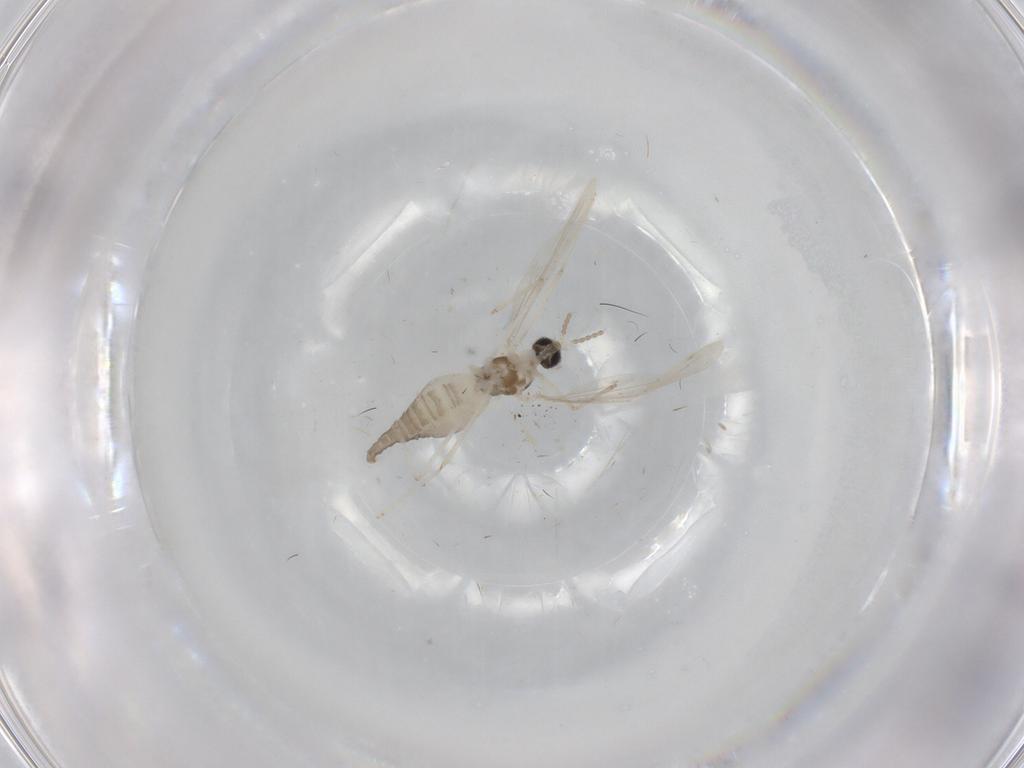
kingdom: Animalia
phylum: Arthropoda
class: Insecta
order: Diptera
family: Cecidomyiidae
